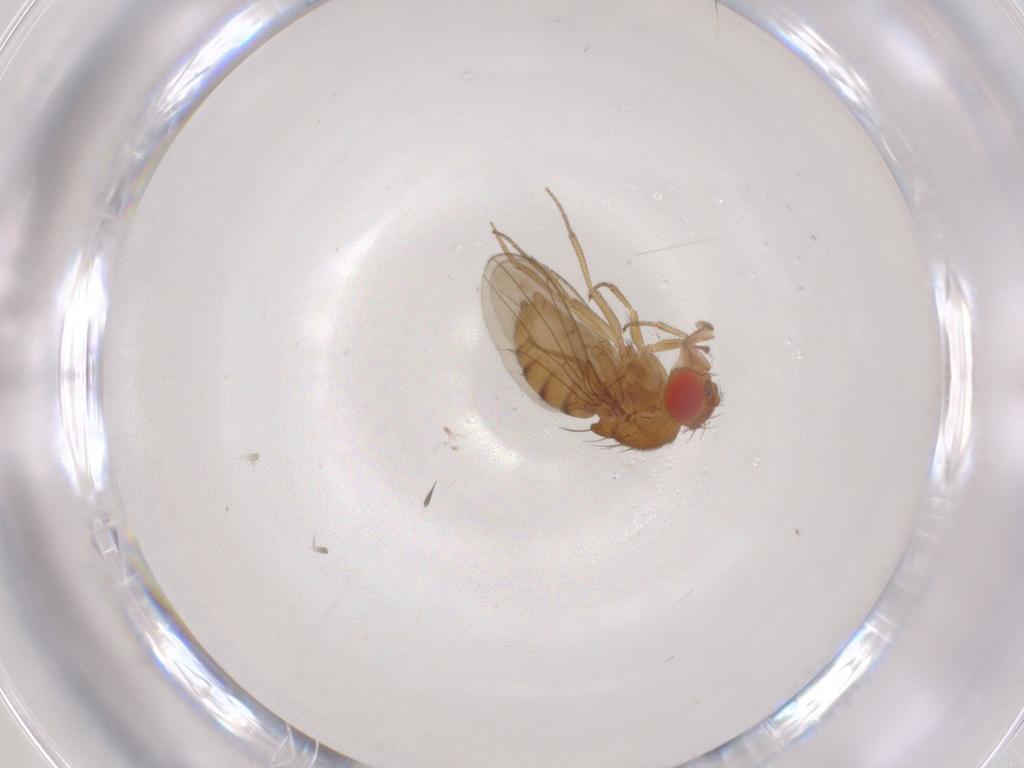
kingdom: Animalia
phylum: Arthropoda
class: Insecta
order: Diptera
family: Drosophilidae
